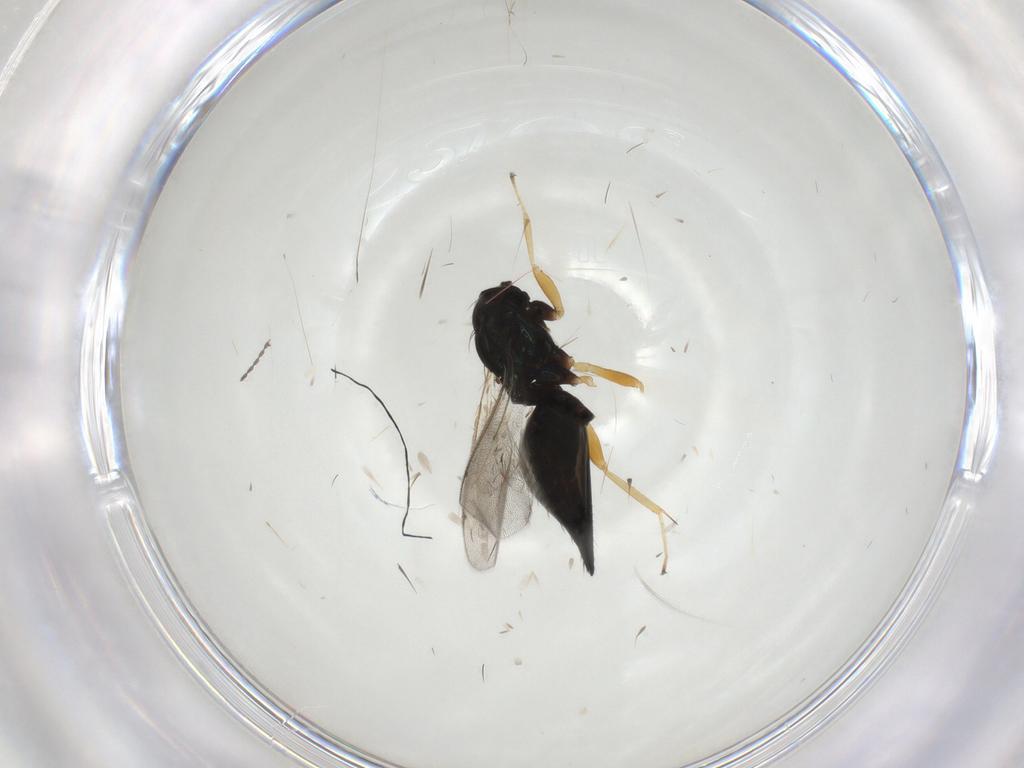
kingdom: Animalia
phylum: Arthropoda
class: Insecta
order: Hymenoptera
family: Eulophidae
